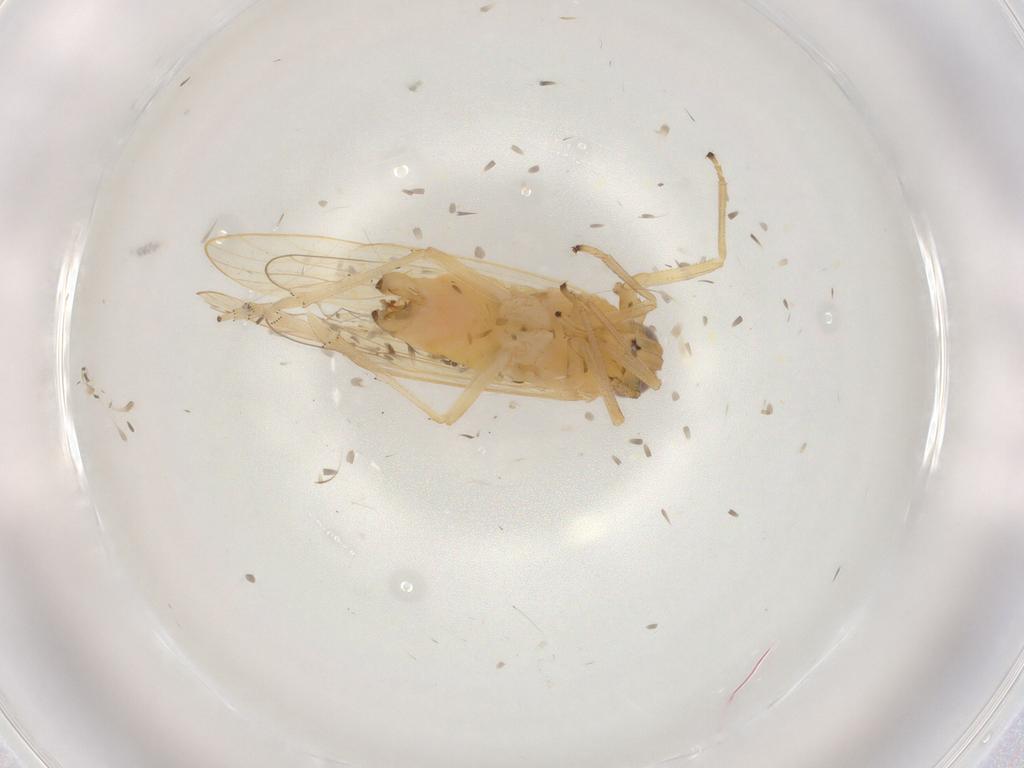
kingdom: Animalia
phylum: Arthropoda
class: Insecta
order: Hemiptera
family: Delphacidae
